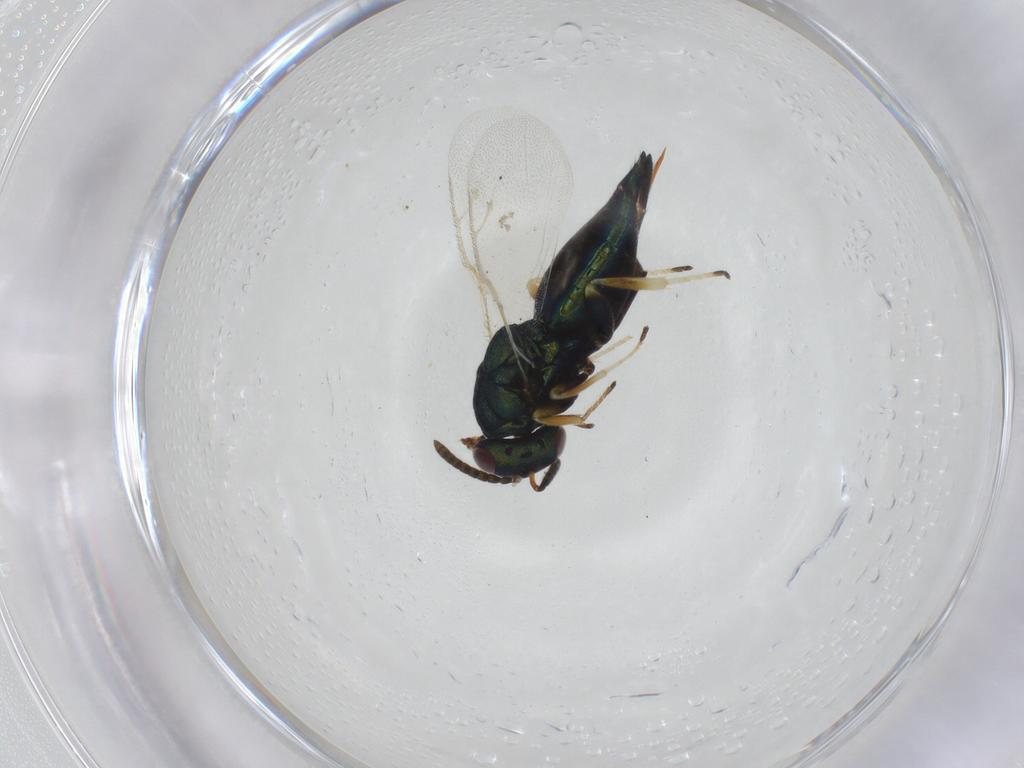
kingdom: Animalia
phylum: Arthropoda
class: Insecta
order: Hymenoptera
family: Pteromalidae
